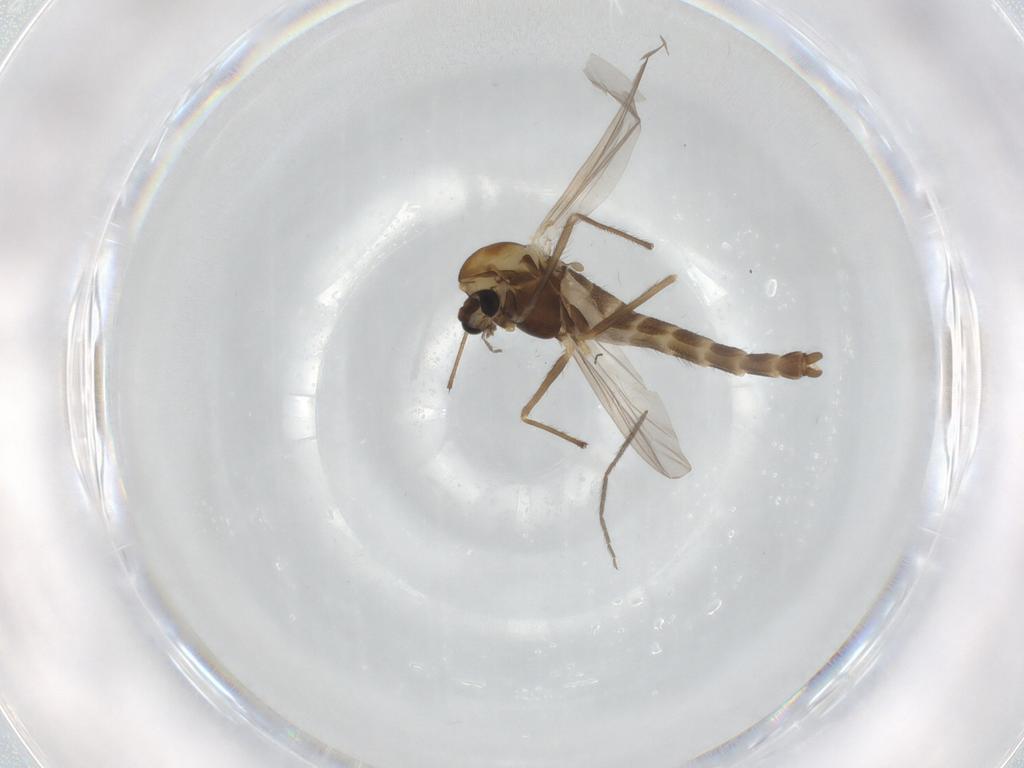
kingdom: Animalia
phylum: Arthropoda
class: Insecta
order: Diptera
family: Chironomidae
